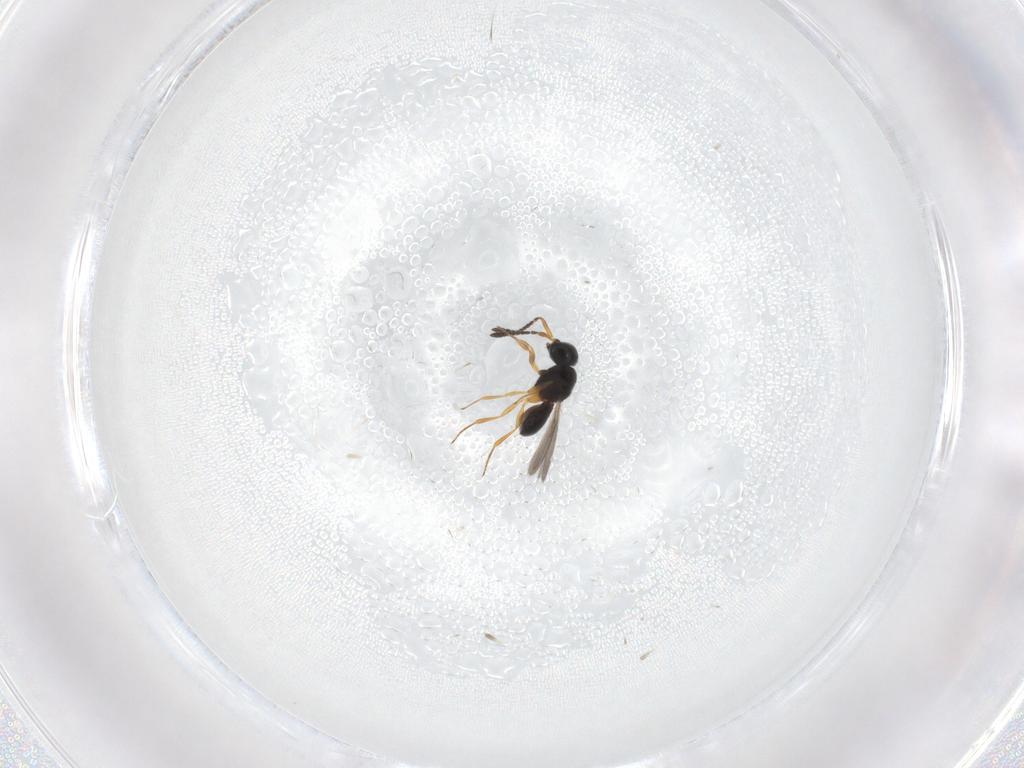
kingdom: Animalia
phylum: Arthropoda
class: Insecta
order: Hymenoptera
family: Scelionidae
